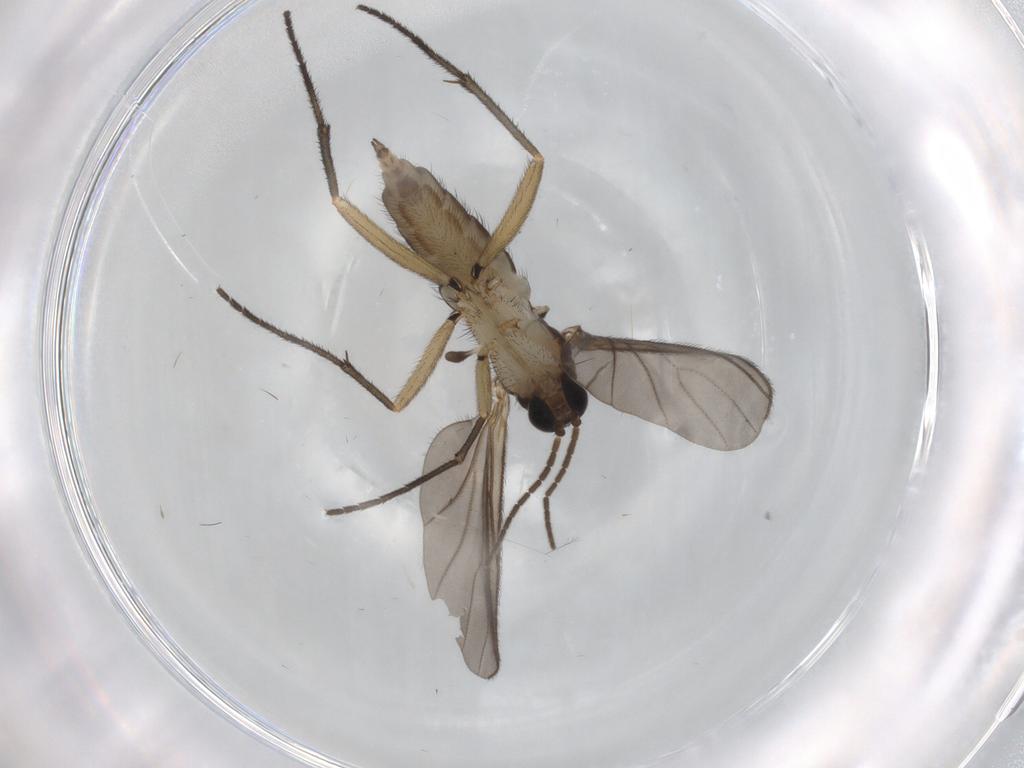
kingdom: Animalia
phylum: Arthropoda
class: Insecta
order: Diptera
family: Sciaridae
